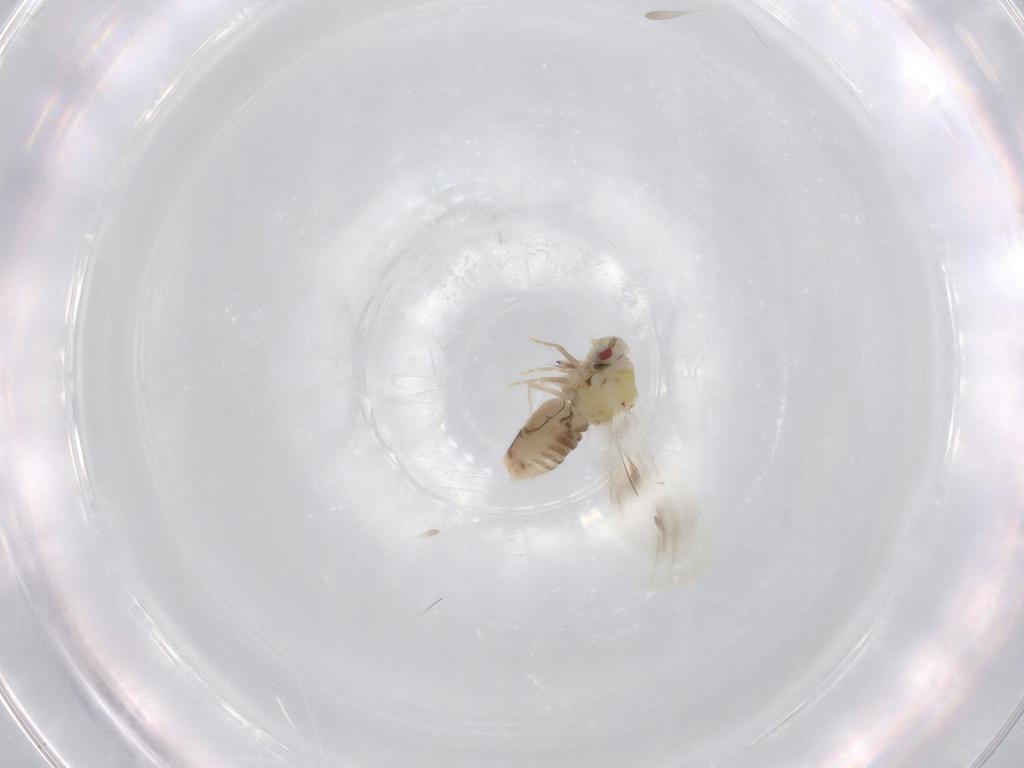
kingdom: Animalia
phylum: Arthropoda
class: Insecta
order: Hemiptera
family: Aleyrodidae
